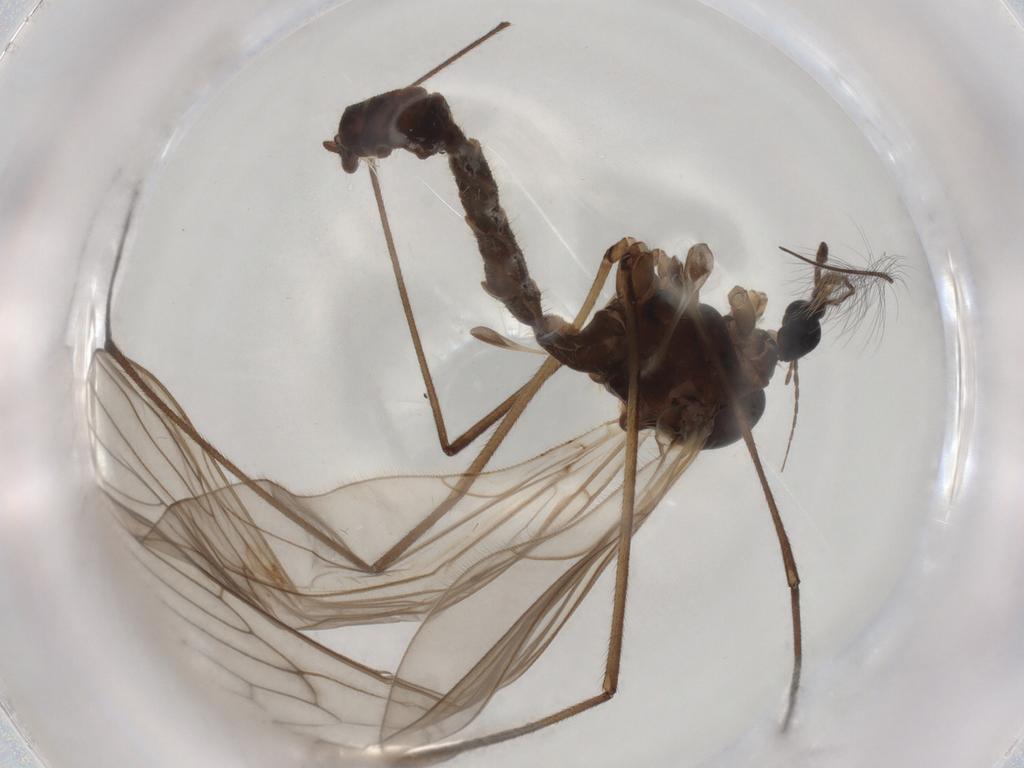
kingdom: Animalia
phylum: Arthropoda
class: Insecta
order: Diptera
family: Trichoceridae
